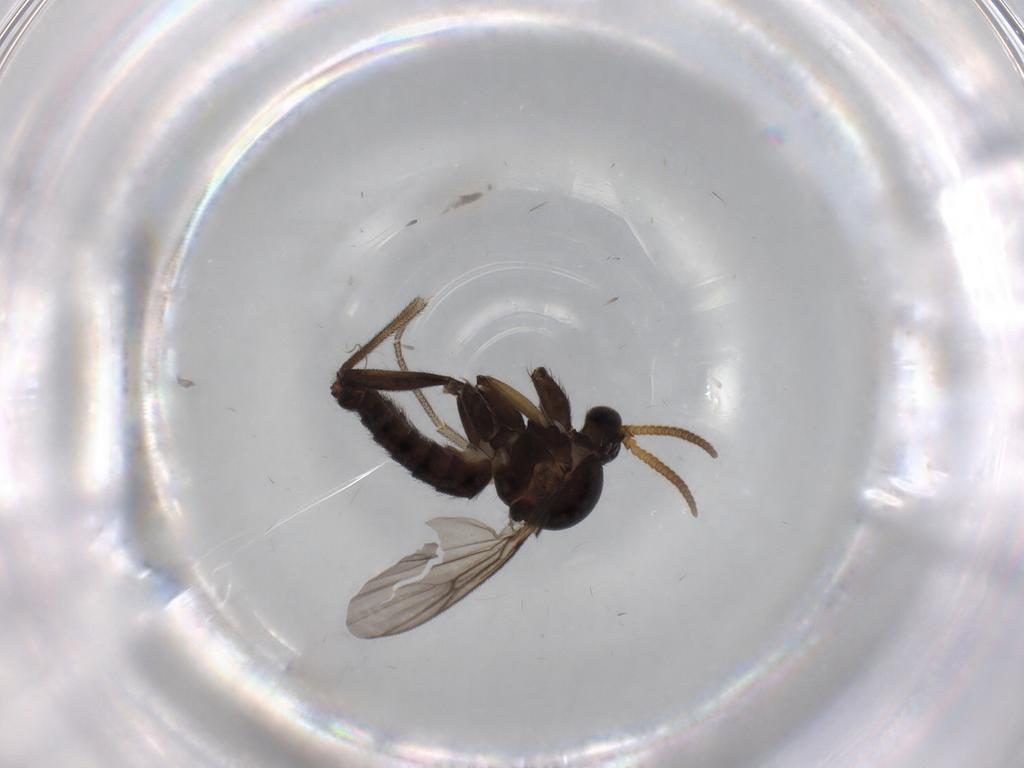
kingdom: Animalia
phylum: Arthropoda
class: Insecta
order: Diptera
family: Mycetophilidae
